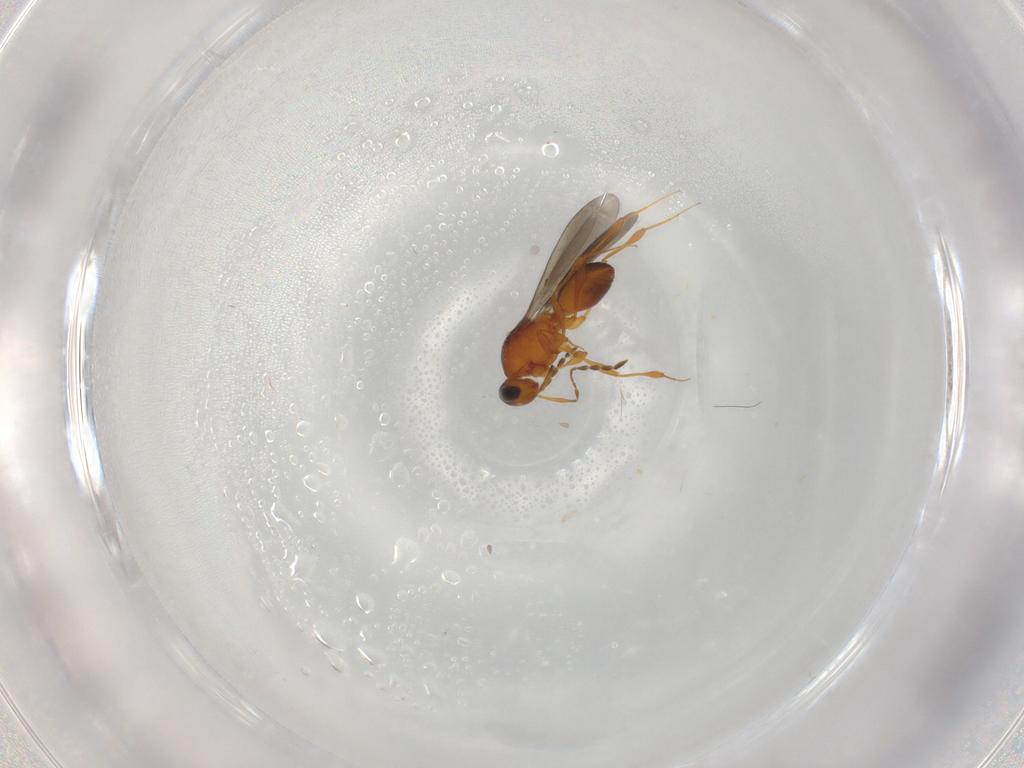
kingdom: Animalia
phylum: Arthropoda
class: Insecta
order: Hymenoptera
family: Platygastridae
